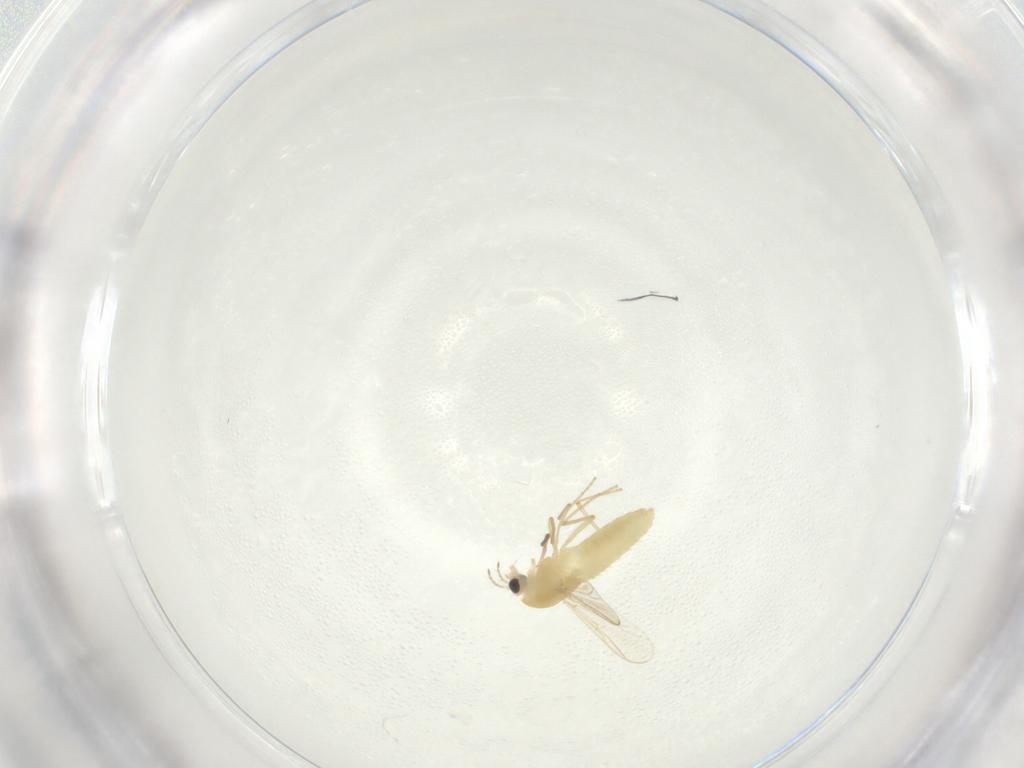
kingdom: Animalia
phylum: Arthropoda
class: Insecta
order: Diptera
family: Chironomidae
